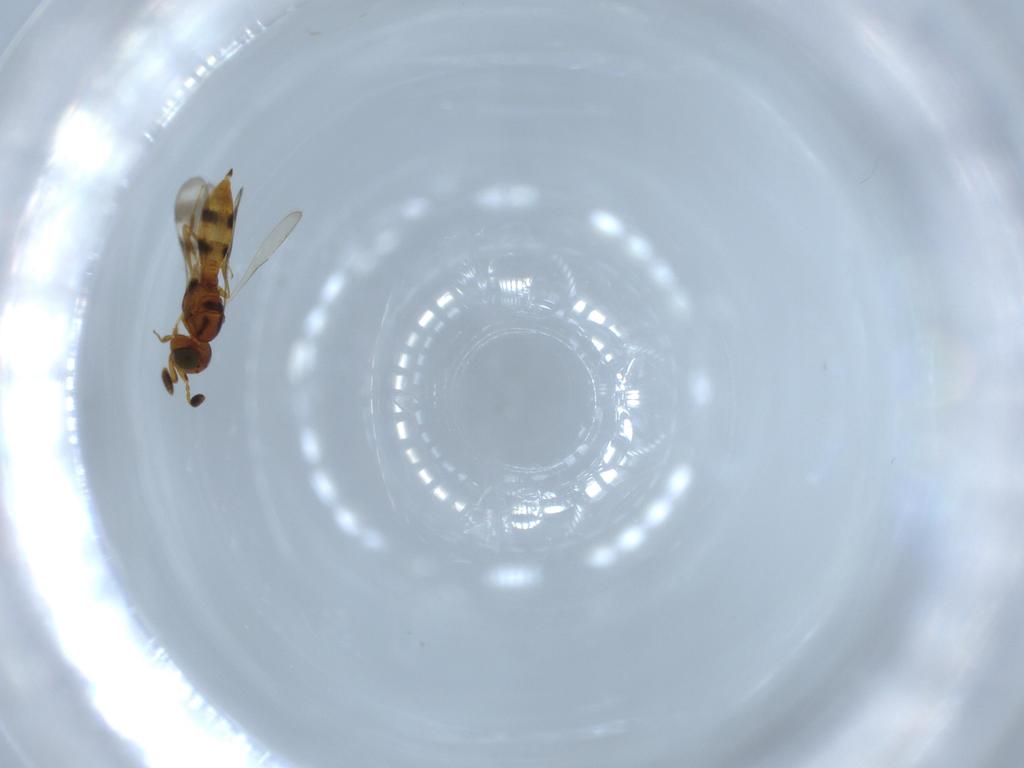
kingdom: Animalia
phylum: Arthropoda
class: Insecta
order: Hymenoptera
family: Scelionidae
